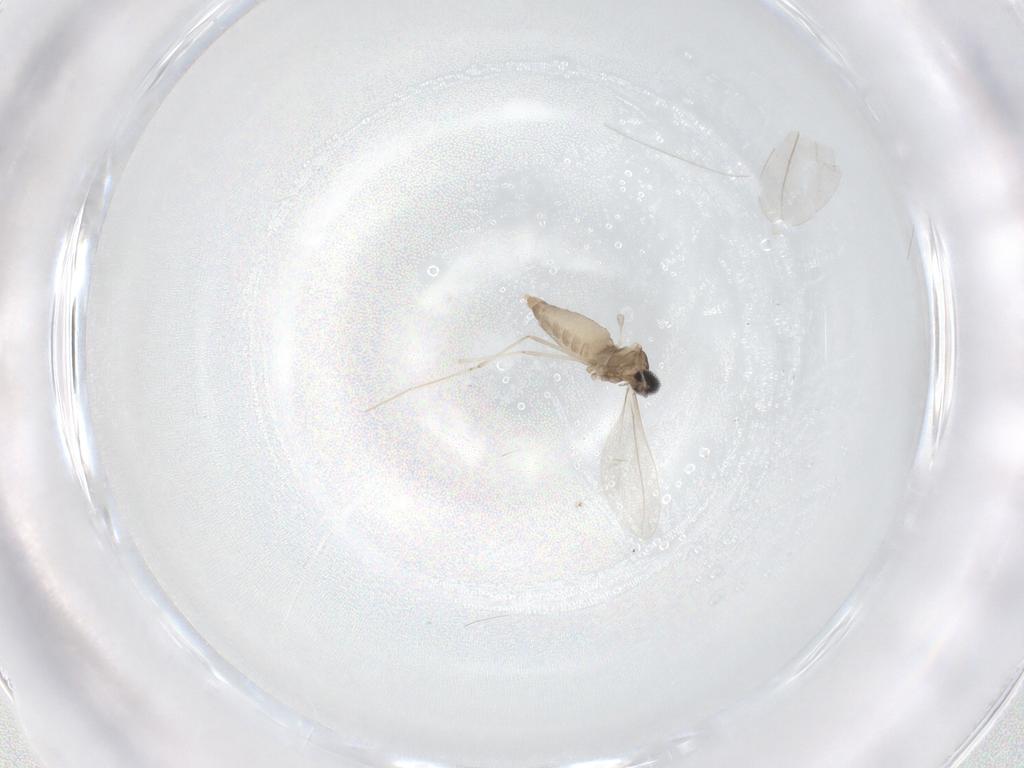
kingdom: Animalia
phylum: Arthropoda
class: Insecta
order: Diptera
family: Cecidomyiidae
